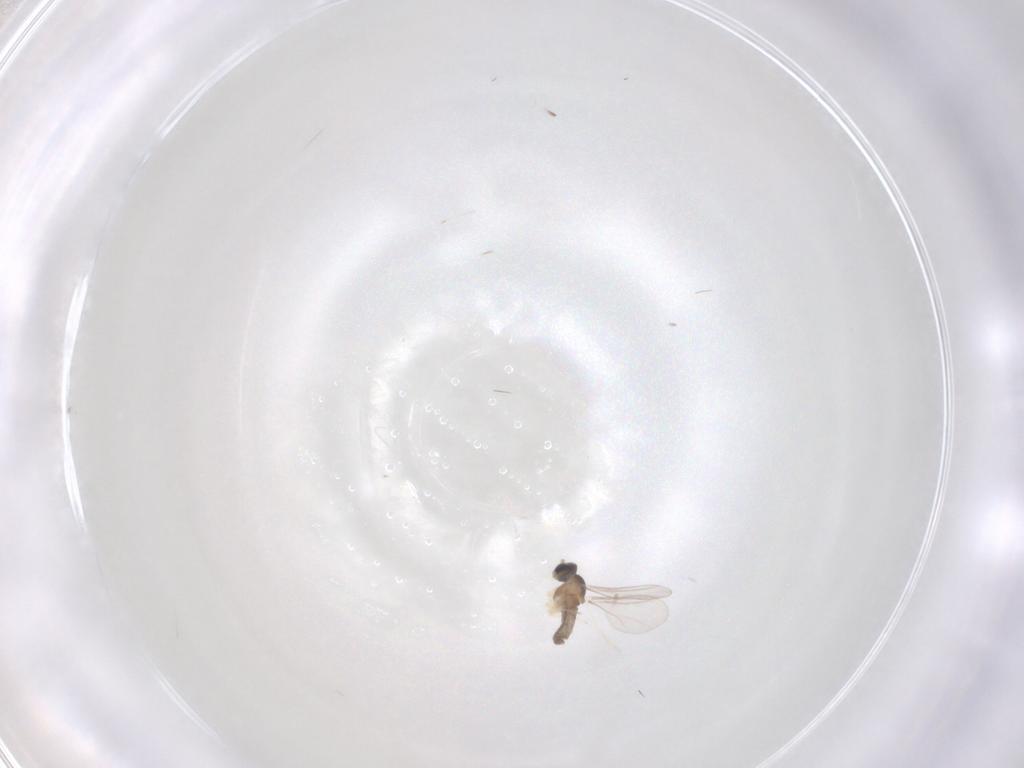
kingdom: Animalia
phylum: Arthropoda
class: Insecta
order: Diptera
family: Cecidomyiidae
